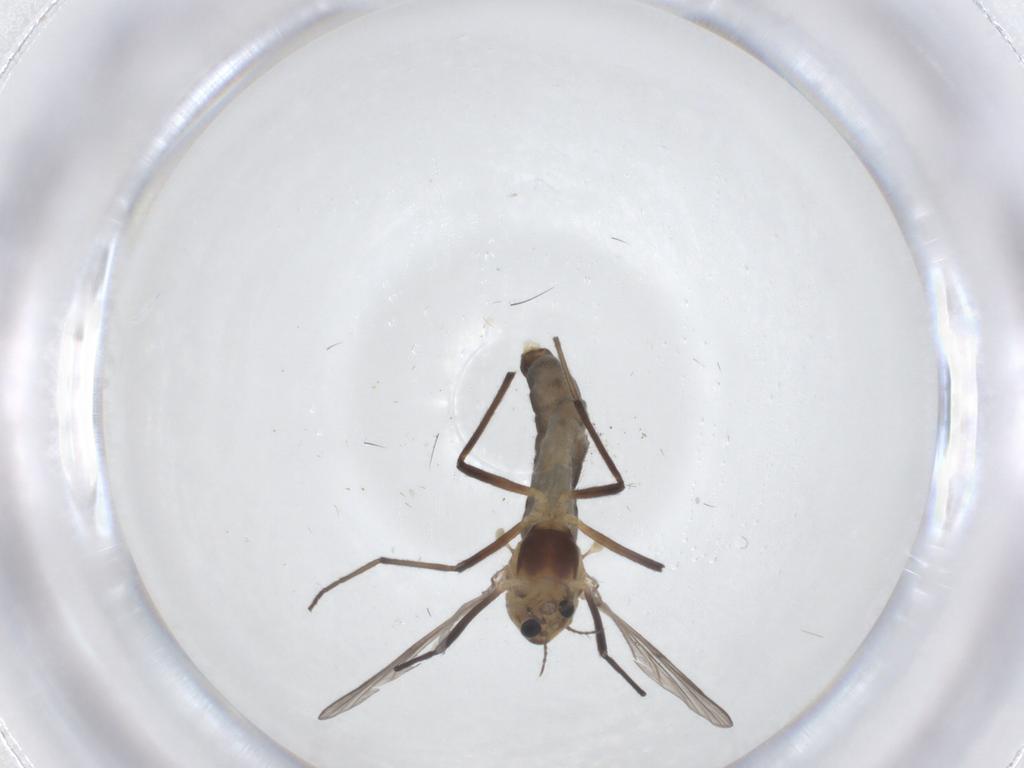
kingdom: Animalia
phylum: Arthropoda
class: Insecta
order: Diptera
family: Chironomidae
